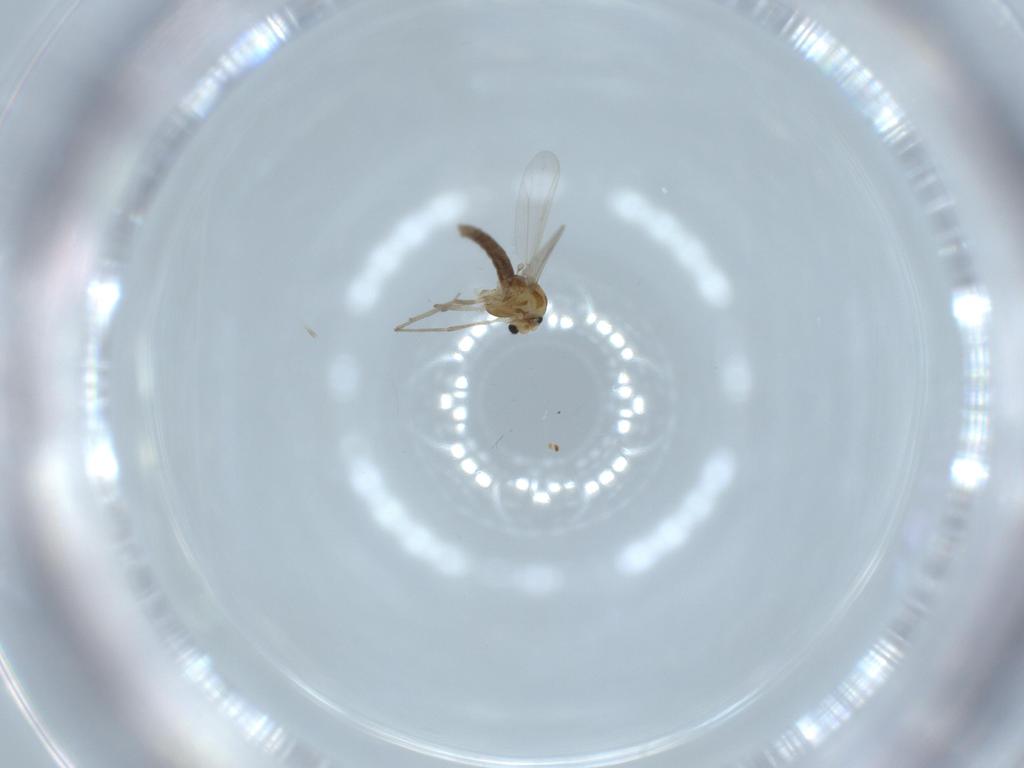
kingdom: Animalia
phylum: Arthropoda
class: Insecta
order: Diptera
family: Chironomidae
